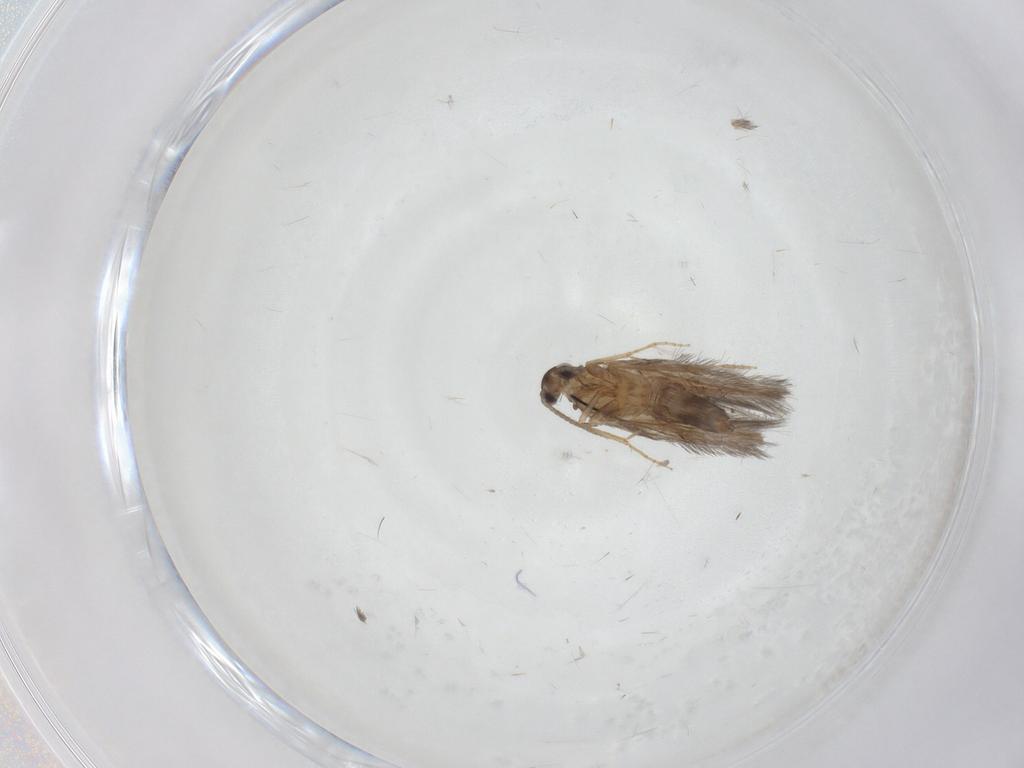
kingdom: Animalia
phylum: Arthropoda
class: Insecta
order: Trichoptera
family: Hydroptilidae
